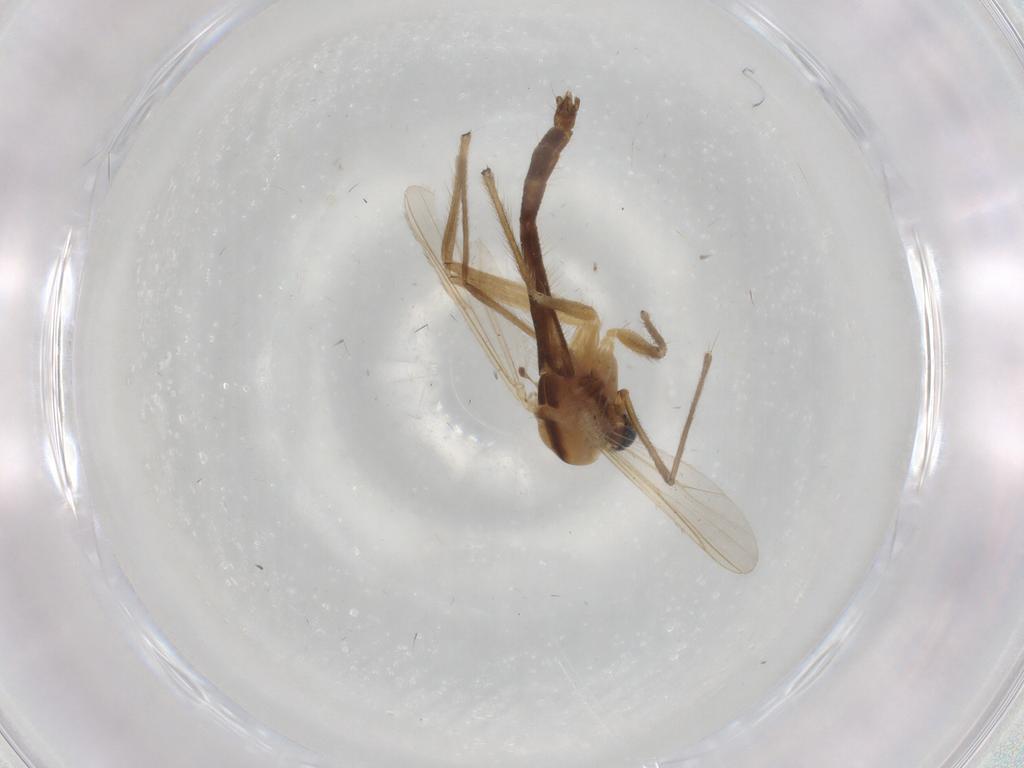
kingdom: Animalia
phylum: Arthropoda
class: Insecta
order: Diptera
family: Chironomidae
